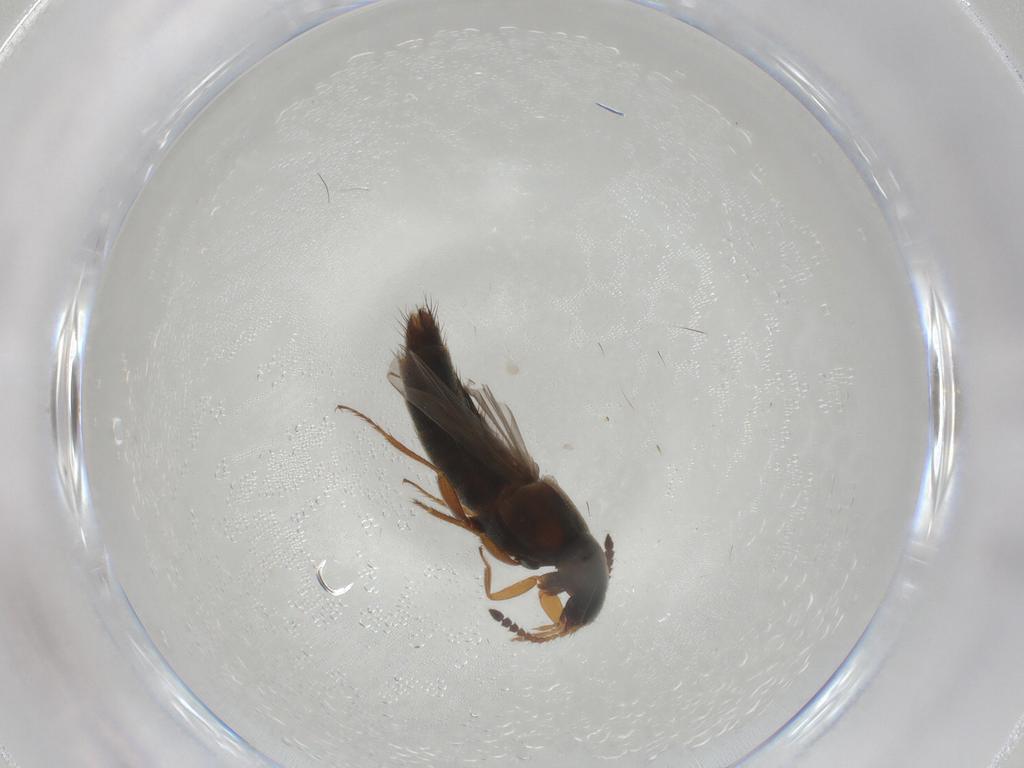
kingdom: Animalia
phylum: Arthropoda
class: Insecta
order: Coleoptera
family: Staphylinidae
